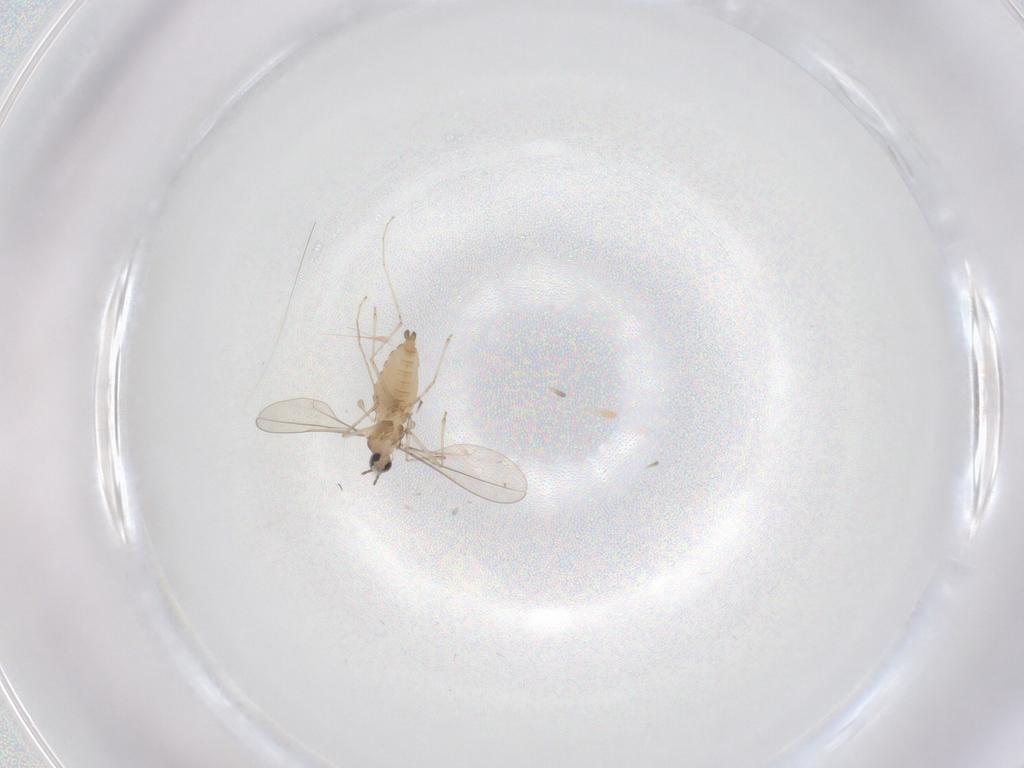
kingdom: Animalia
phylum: Arthropoda
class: Insecta
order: Diptera
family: Cecidomyiidae
